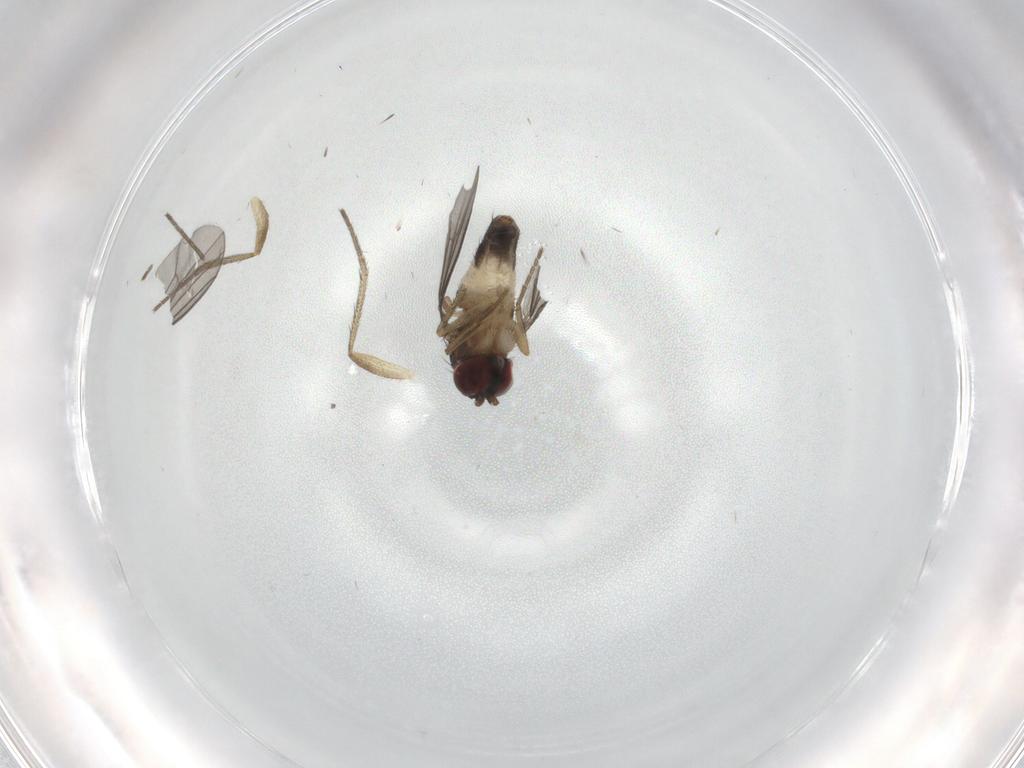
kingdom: Animalia
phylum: Arthropoda
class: Insecta
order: Diptera
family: Dolichopodidae
